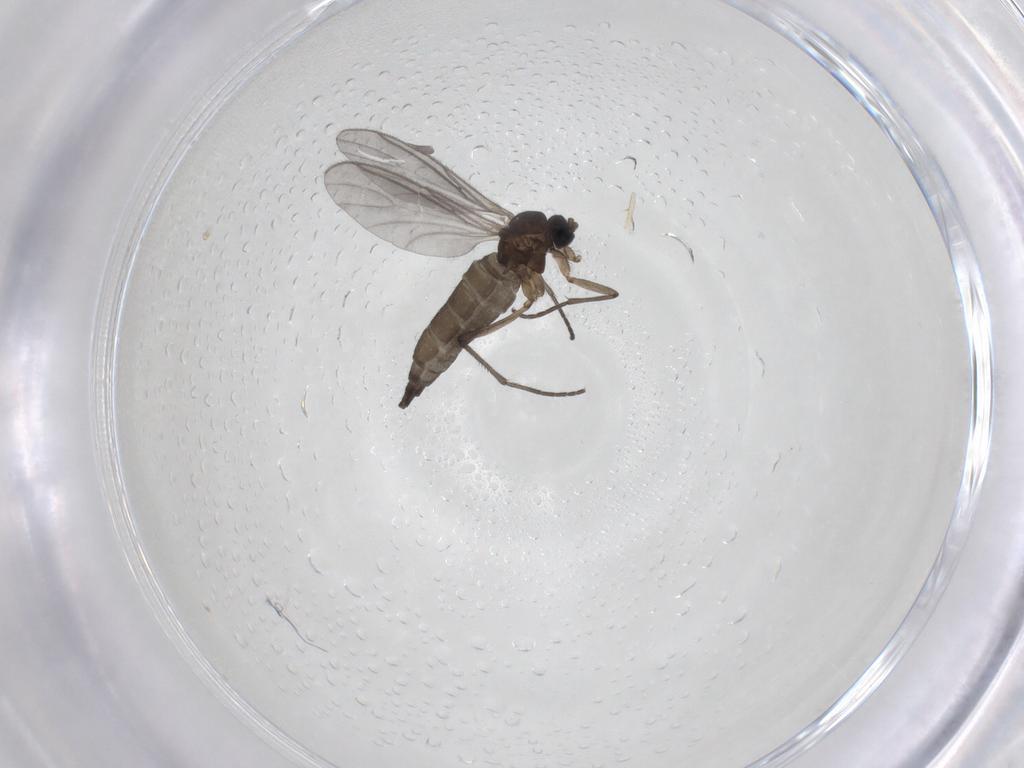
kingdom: Animalia
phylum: Arthropoda
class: Insecta
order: Diptera
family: Sciaridae
